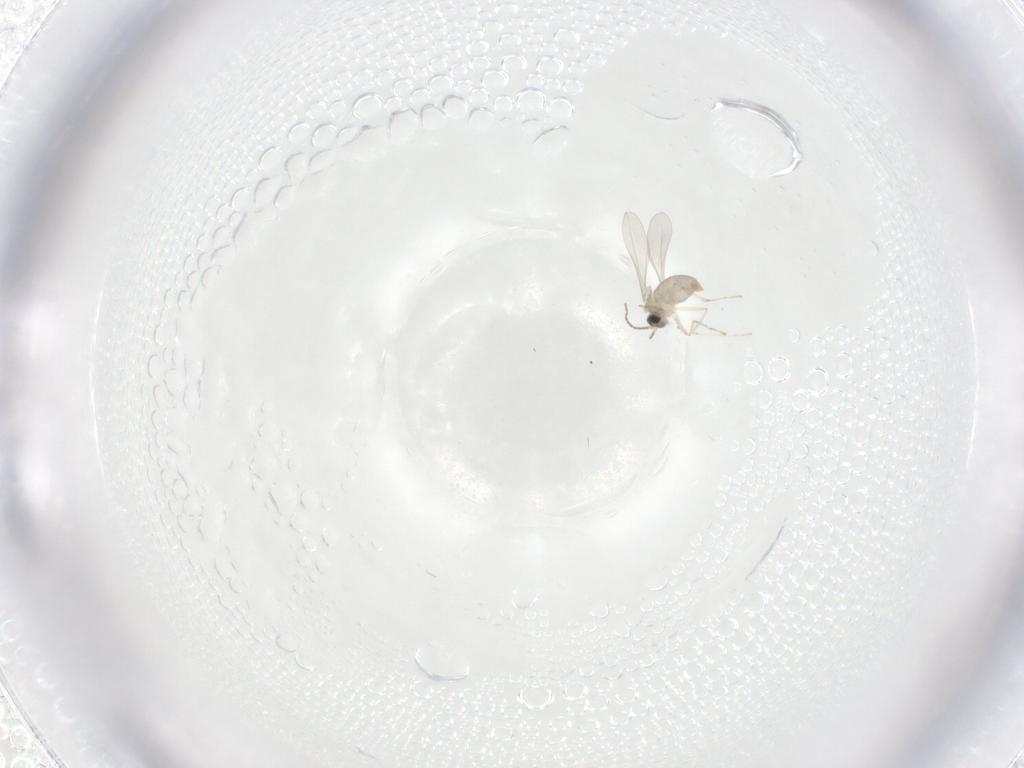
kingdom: Animalia
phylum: Arthropoda
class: Insecta
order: Diptera
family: Cecidomyiidae
